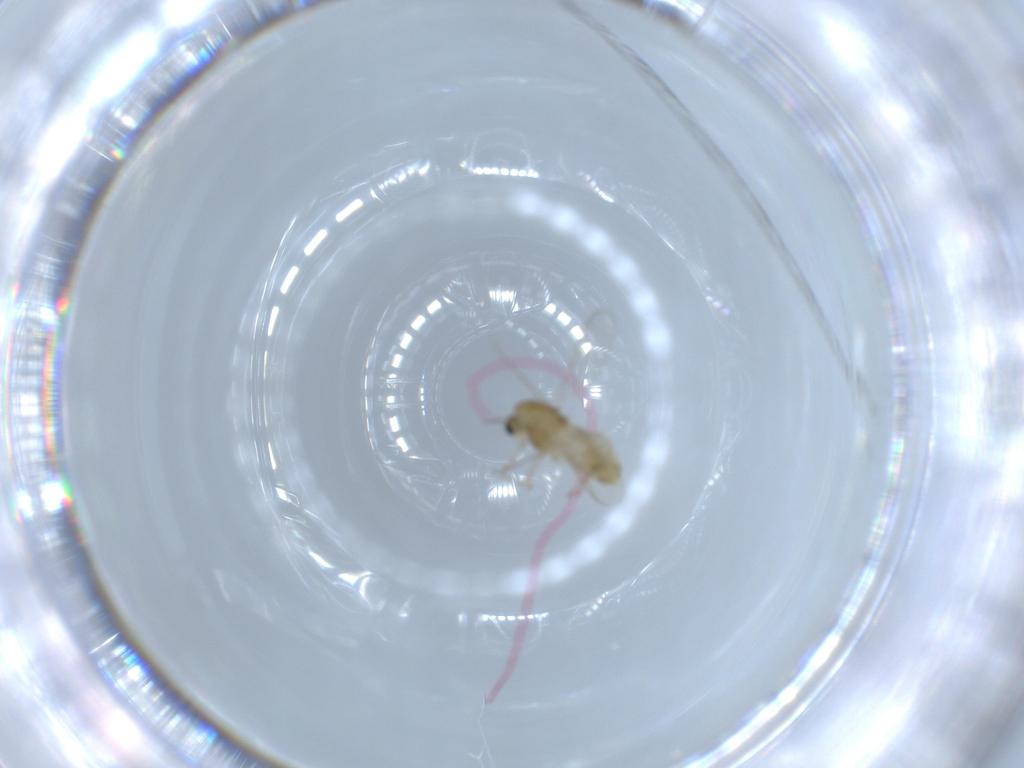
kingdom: Animalia
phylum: Arthropoda
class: Insecta
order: Diptera
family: Chironomidae
